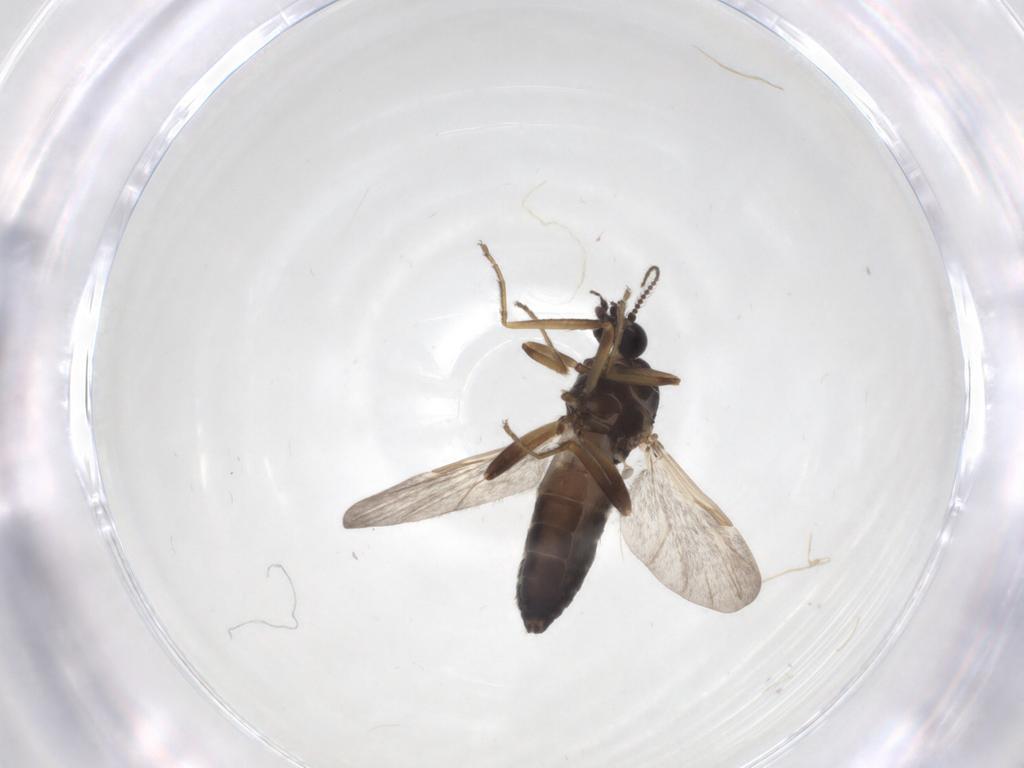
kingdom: Animalia
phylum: Arthropoda
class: Insecta
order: Diptera
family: Ceratopogonidae
